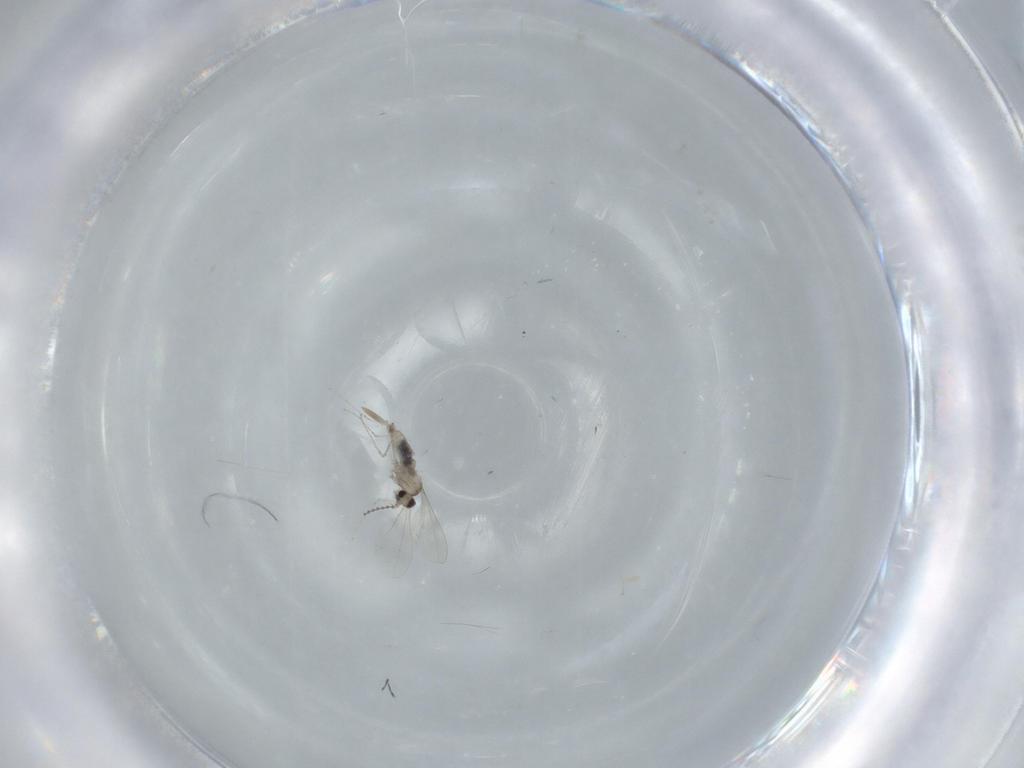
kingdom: Animalia
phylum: Arthropoda
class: Insecta
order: Diptera
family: Cecidomyiidae
